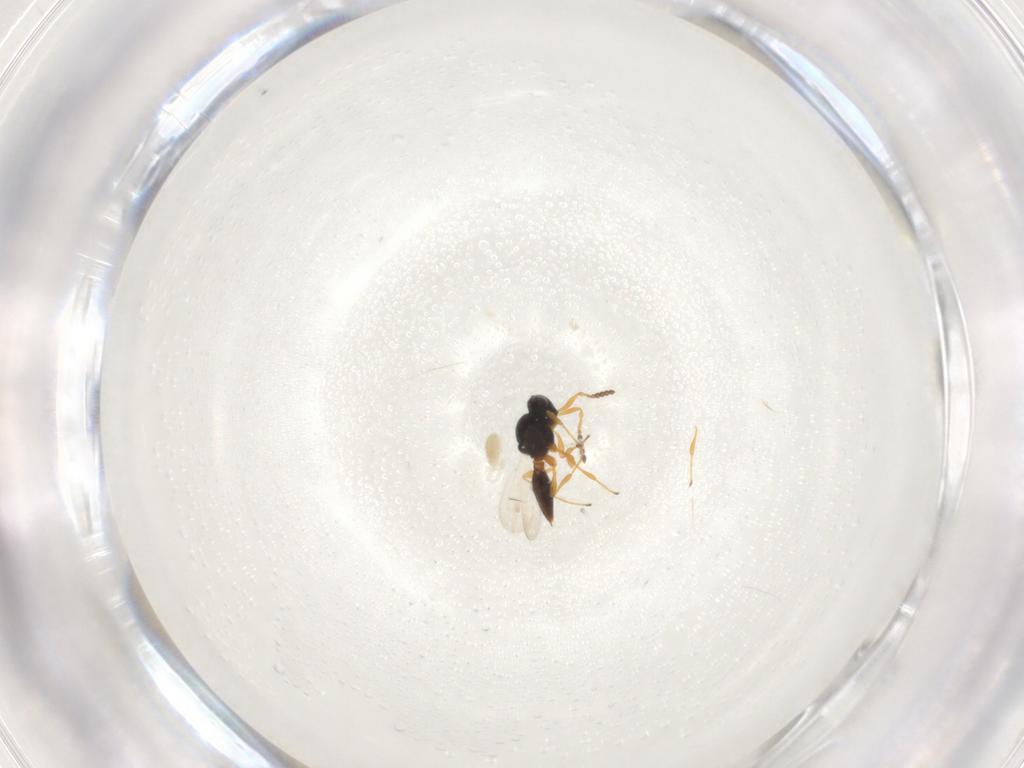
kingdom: Animalia
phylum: Arthropoda
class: Insecta
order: Hymenoptera
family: Platygastridae
